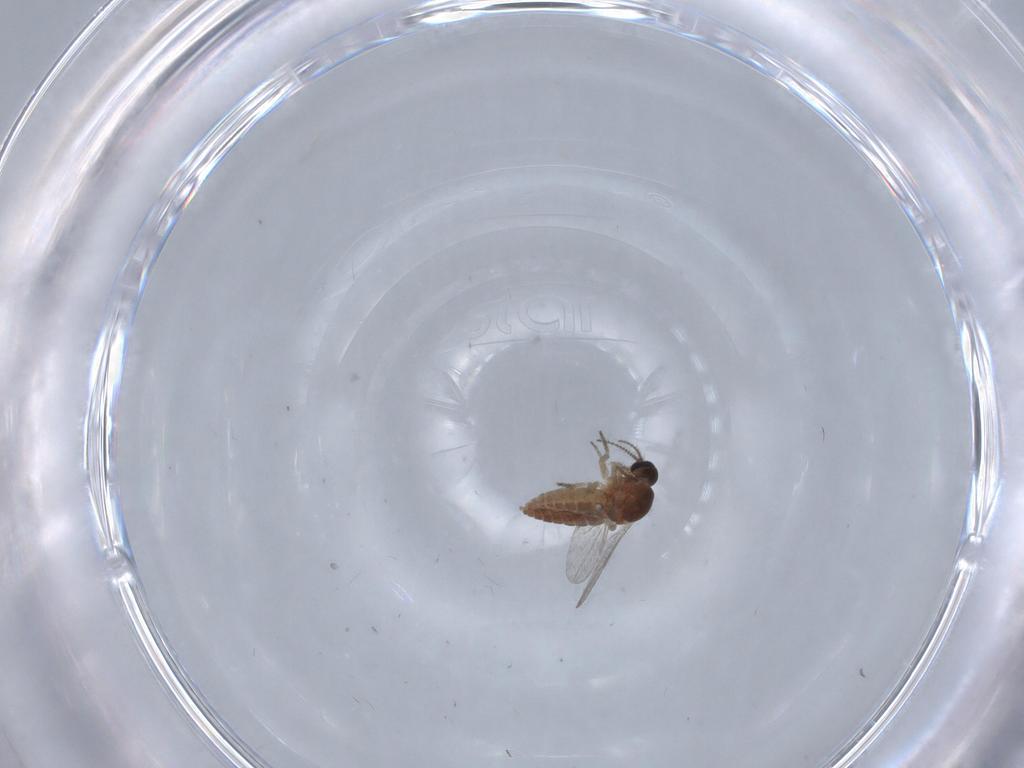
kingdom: Animalia
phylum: Arthropoda
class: Insecta
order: Diptera
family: Chironomidae
